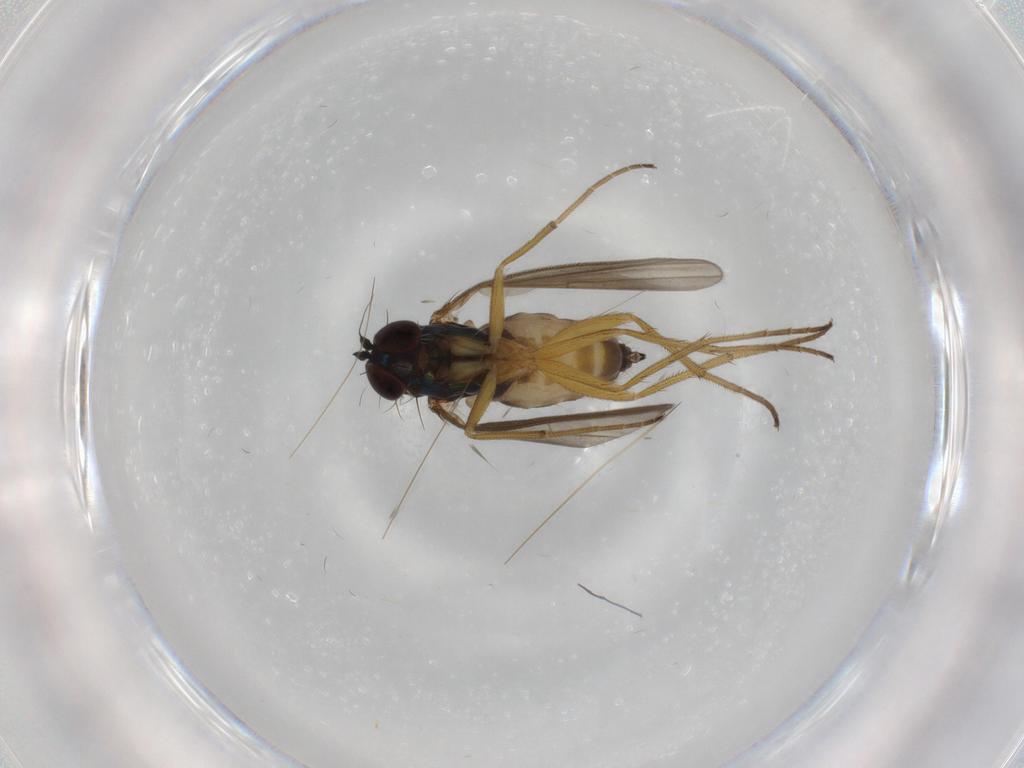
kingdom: Animalia
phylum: Arthropoda
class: Insecta
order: Diptera
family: Dolichopodidae
